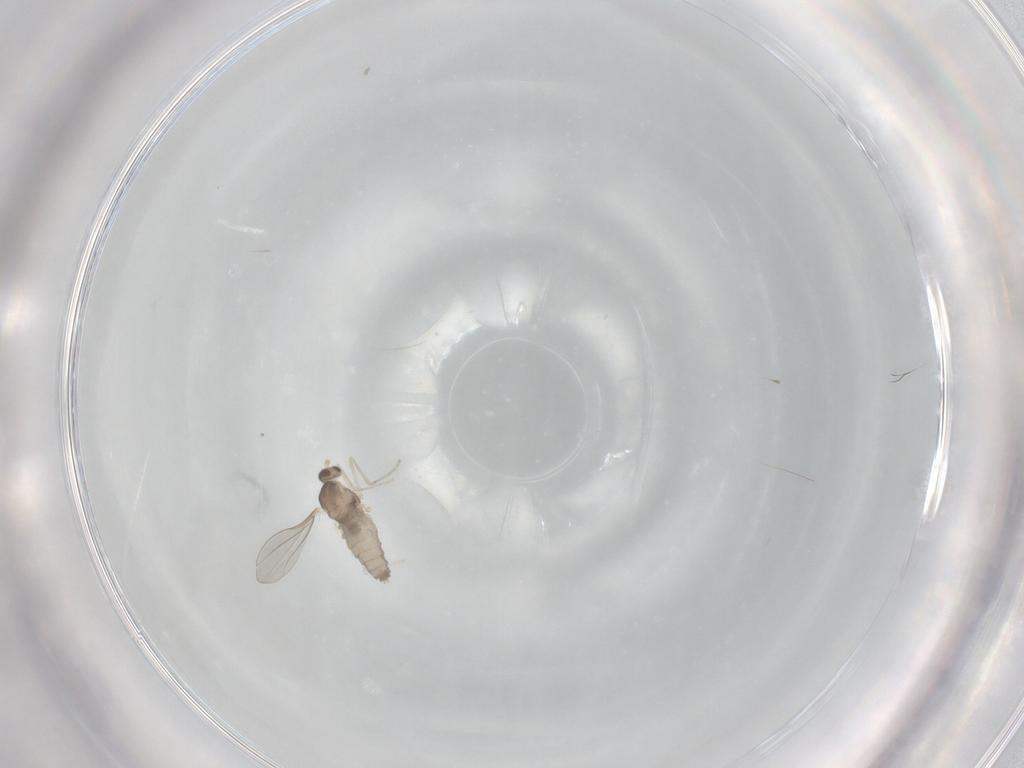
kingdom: Animalia
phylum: Arthropoda
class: Insecta
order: Diptera
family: Cecidomyiidae
